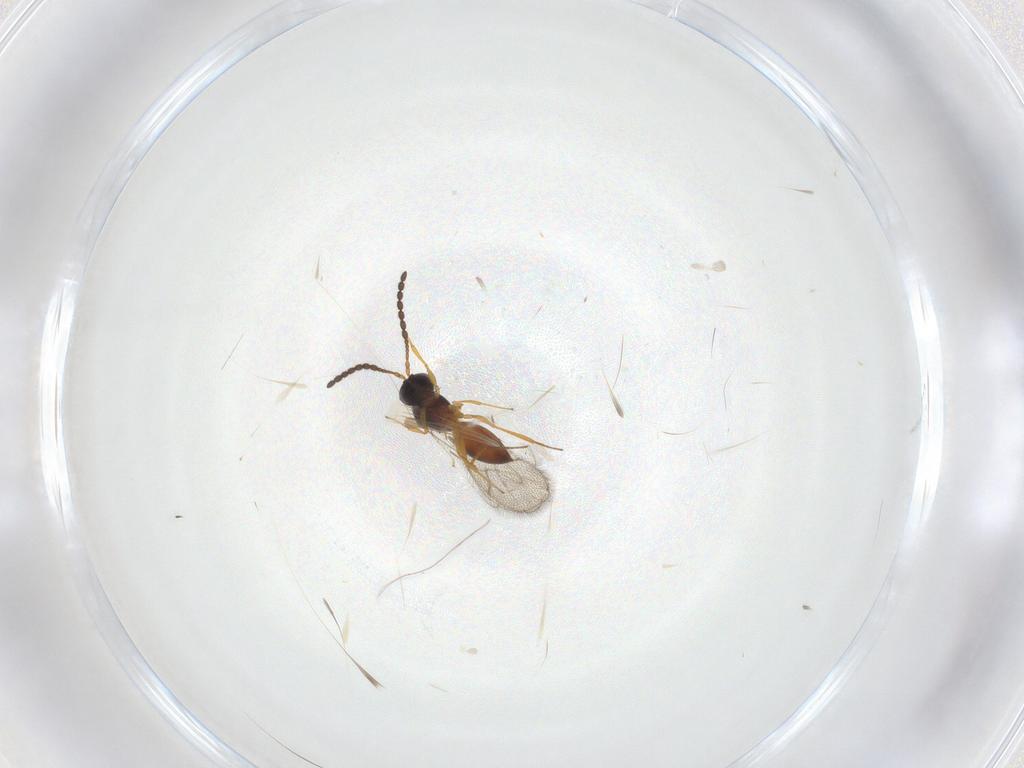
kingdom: Animalia
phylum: Arthropoda
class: Insecta
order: Hymenoptera
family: Figitidae
